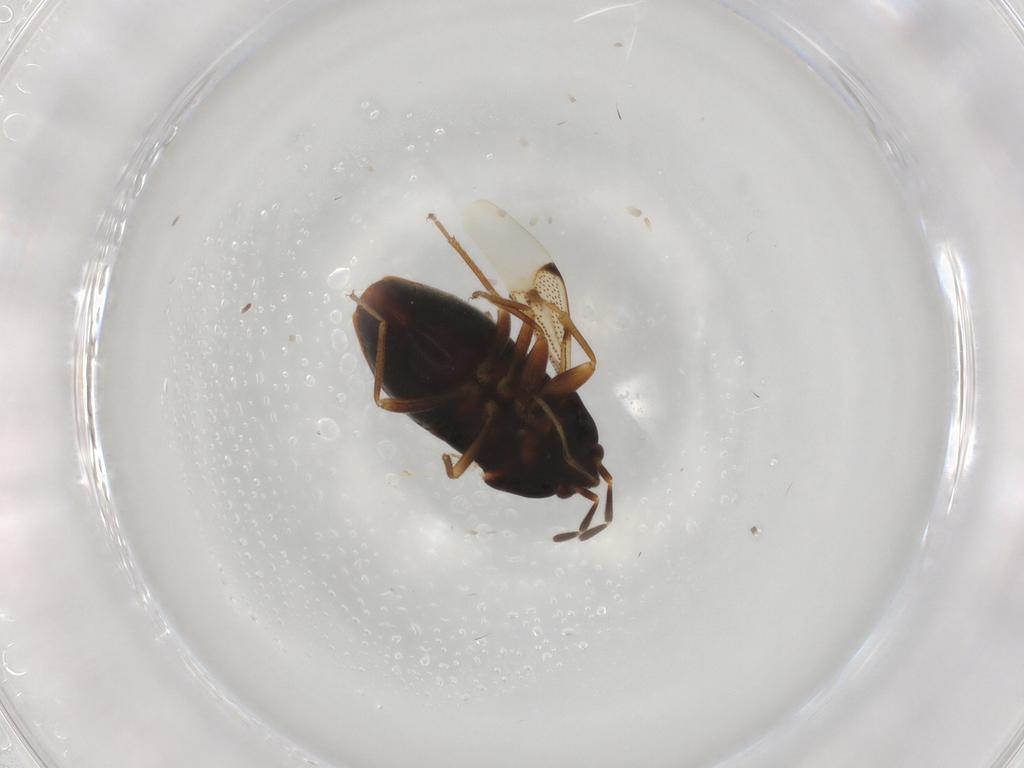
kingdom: Animalia
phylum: Arthropoda
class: Insecta
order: Hemiptera
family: Rhyparochromidae
